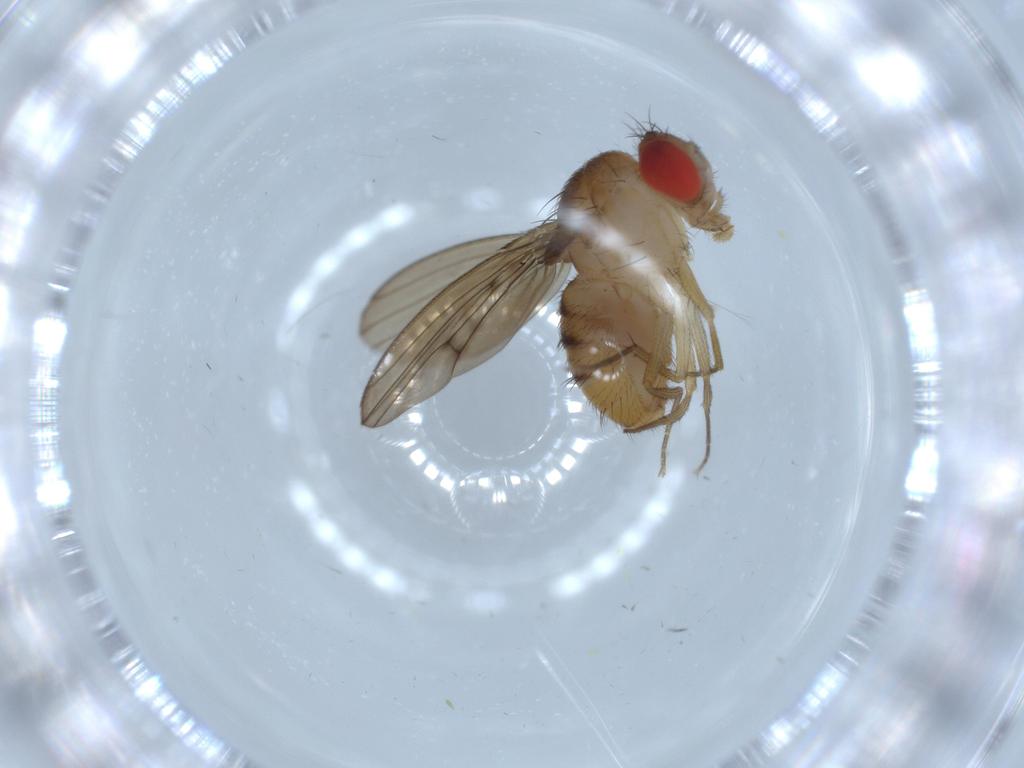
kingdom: Animalia
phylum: Arthropoda
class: Insecta
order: Diptera
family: Drosophilidae
